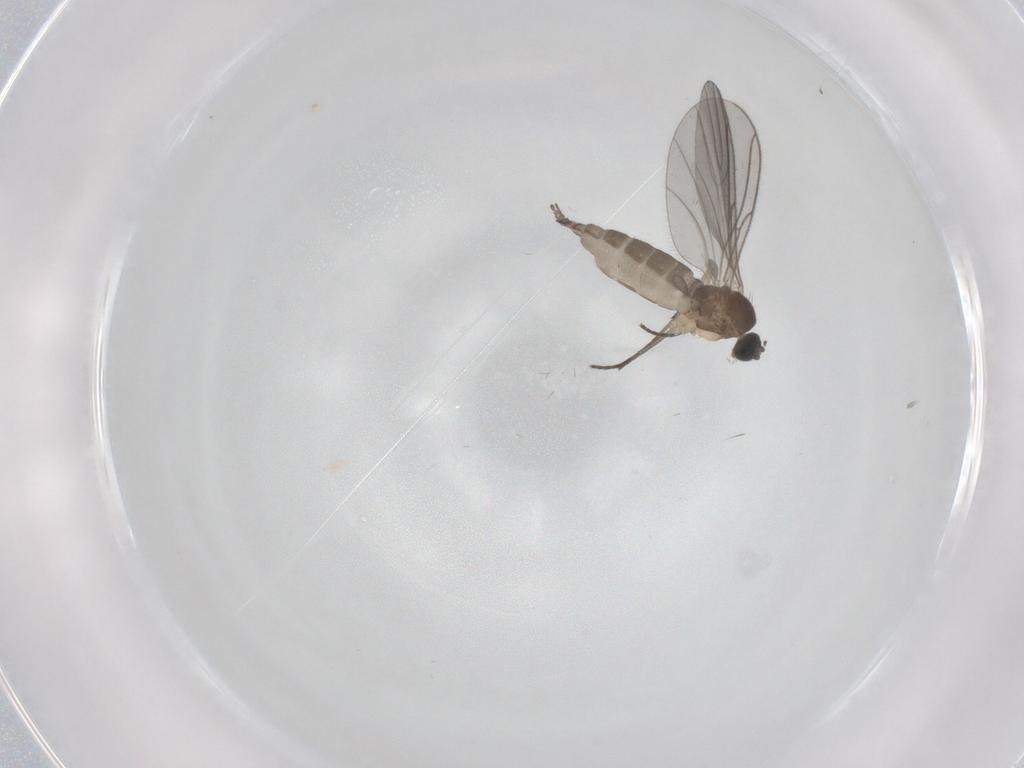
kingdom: Animalia
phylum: Arthropoda
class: Insecta
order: Diptera
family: Sciaridae
